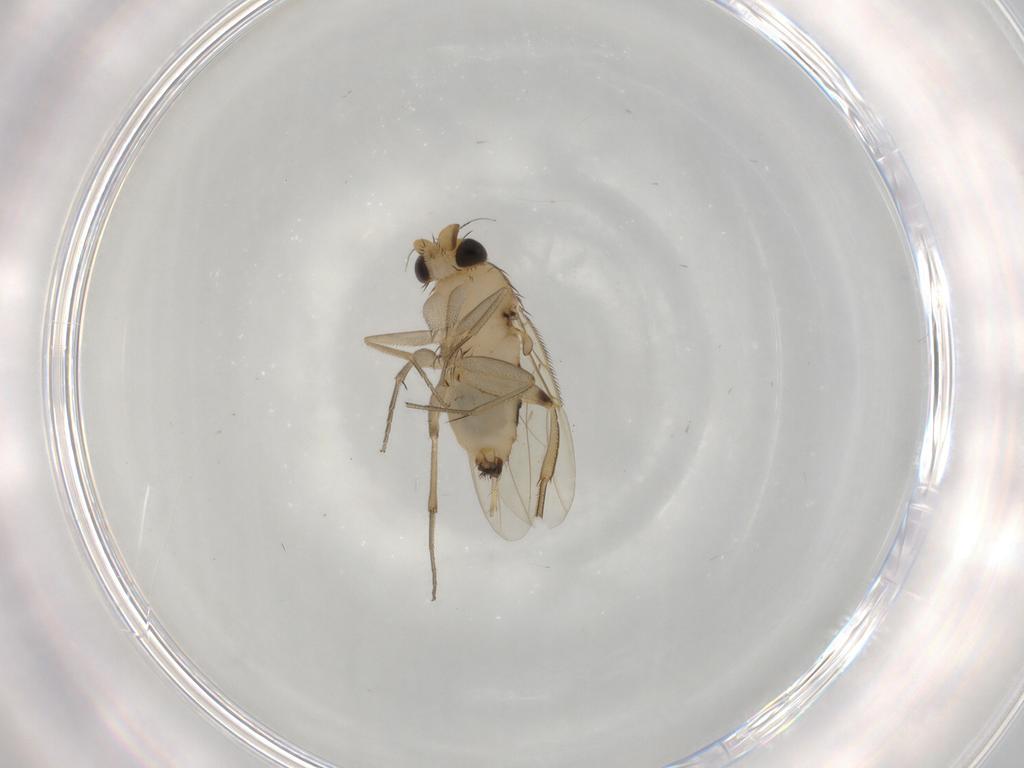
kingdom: Animalia
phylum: Arthropoda
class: Insecta
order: Diptera
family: Phoridae
